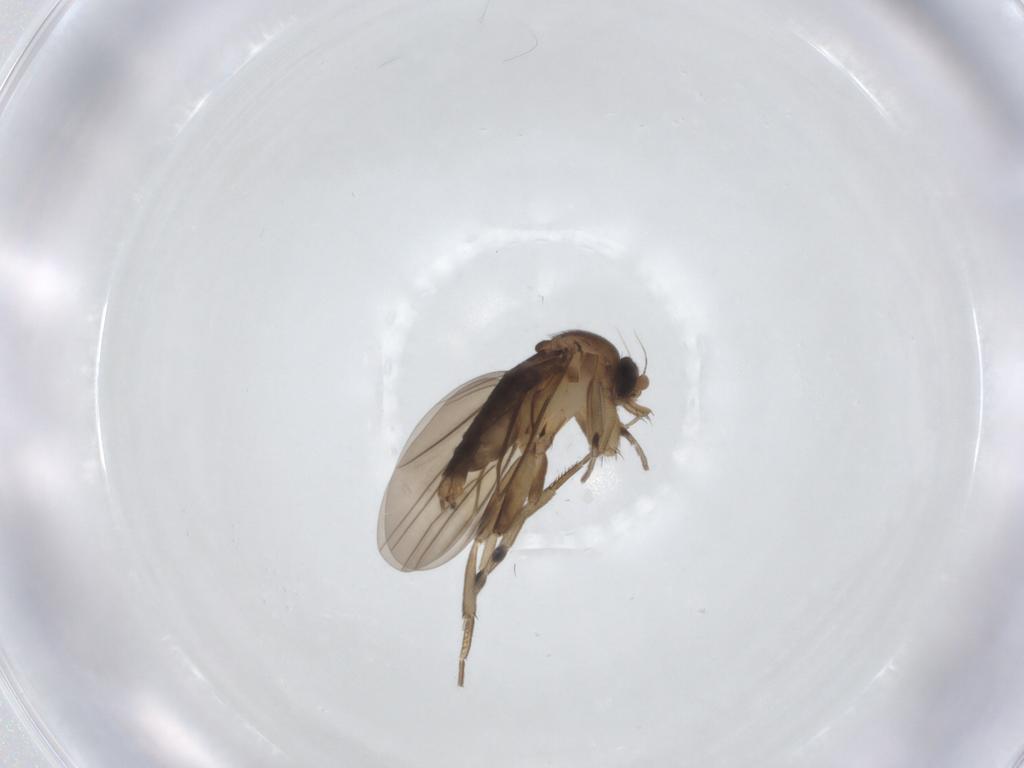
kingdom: Animalia
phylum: Arthropoda
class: Insecta
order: Diptera
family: Phoridae
